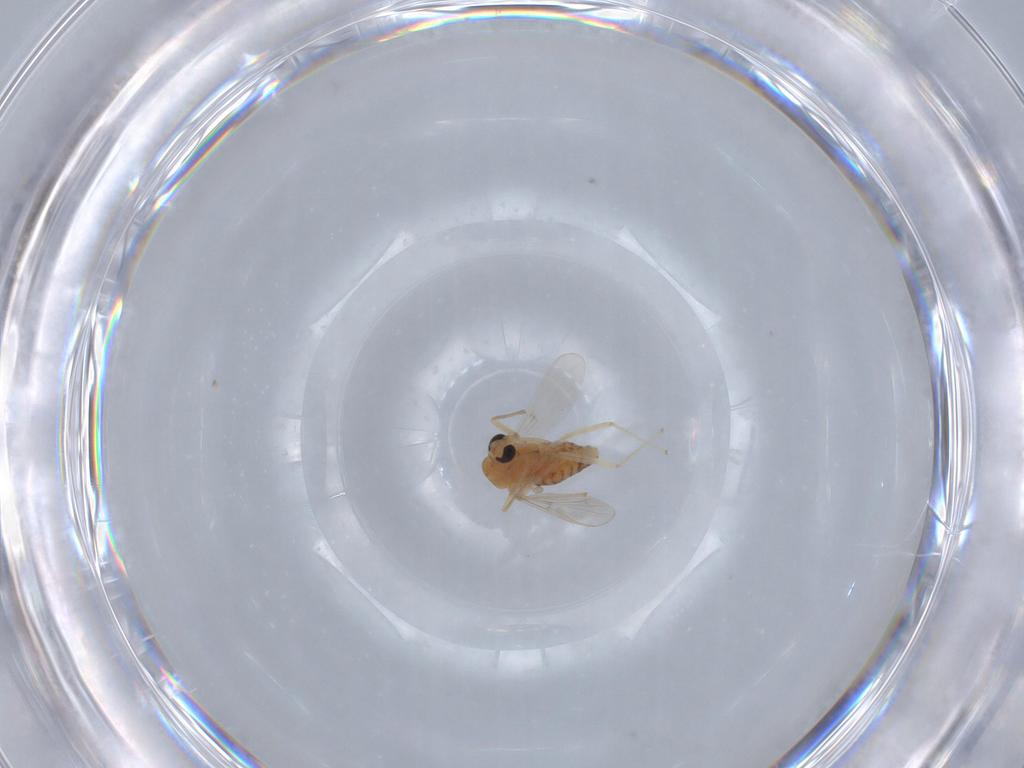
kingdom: Animalia
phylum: Arthropoda
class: Insecta
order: Diptera
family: Chironomidae
